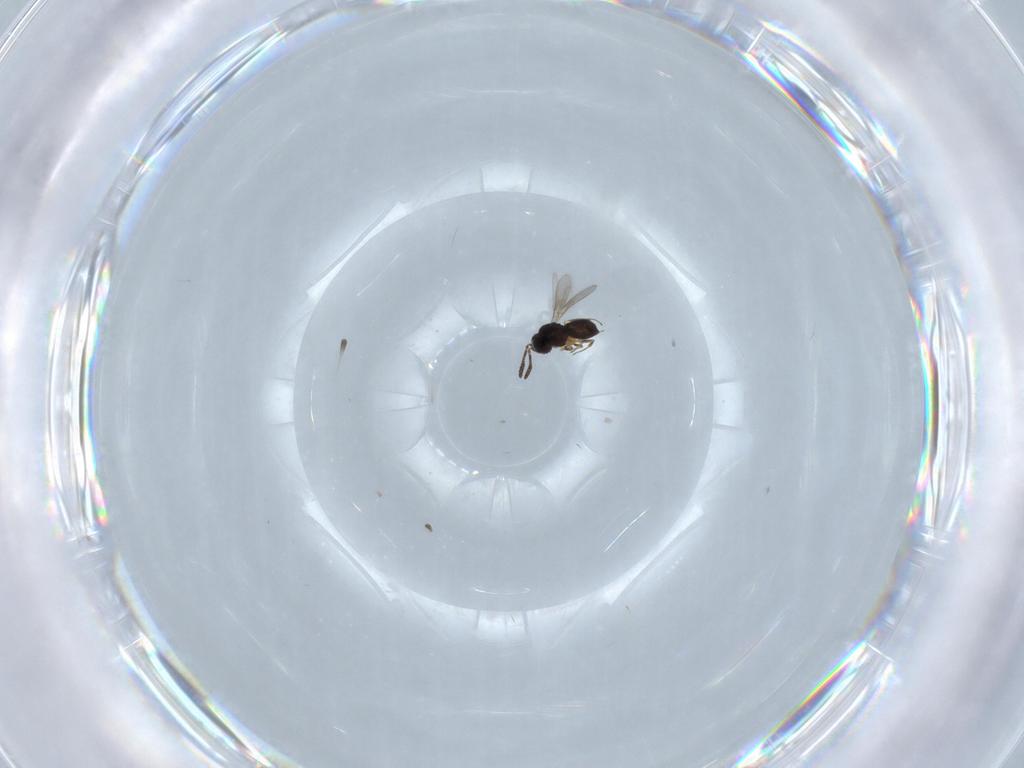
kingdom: Animalia
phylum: Arthropoda
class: Insecta
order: Hymenoptera
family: Scelionidae
